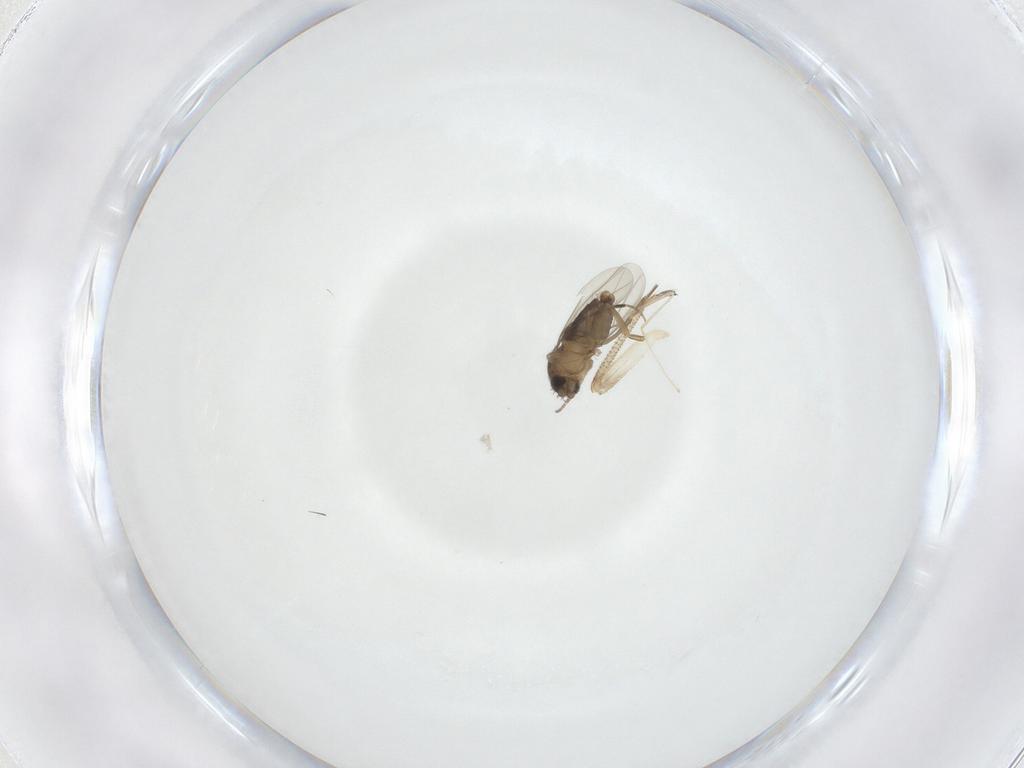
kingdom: Animalia
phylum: Arthropoda
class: Insecta
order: Diptera
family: Cecidomyiidae
